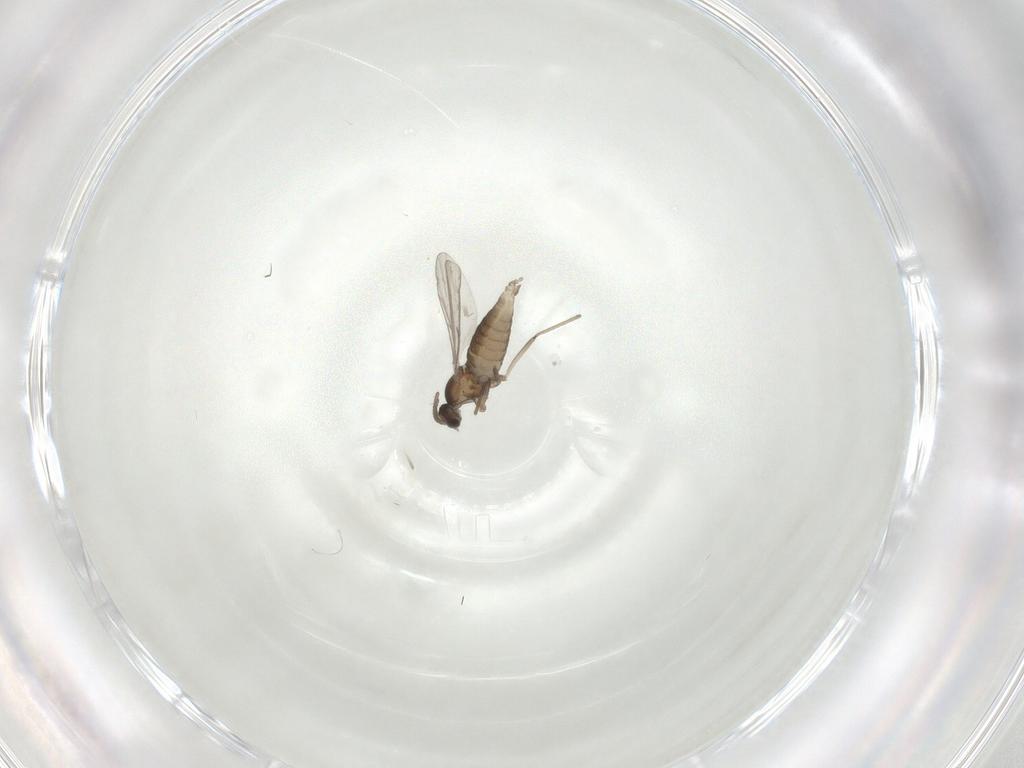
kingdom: Animalia
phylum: Arthropoda
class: Insecta
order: Diptera
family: Cecidomyiidae
